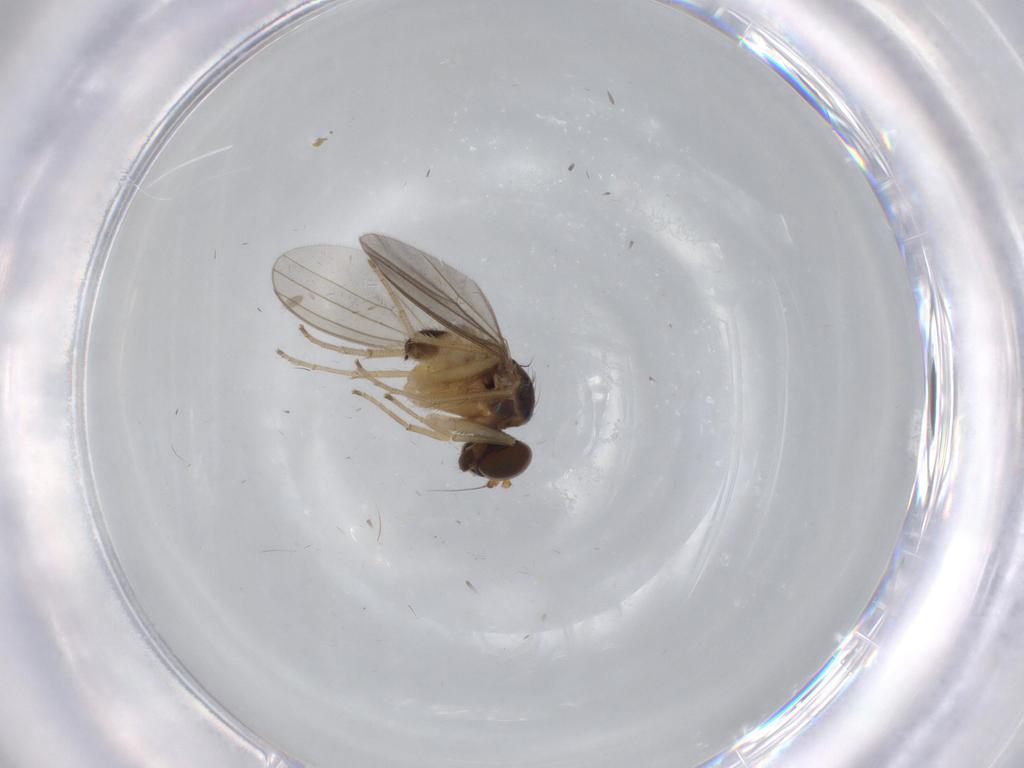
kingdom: Animalia
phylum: Arthropoda
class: Insecta
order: Diptera
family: Dolichopodidae
